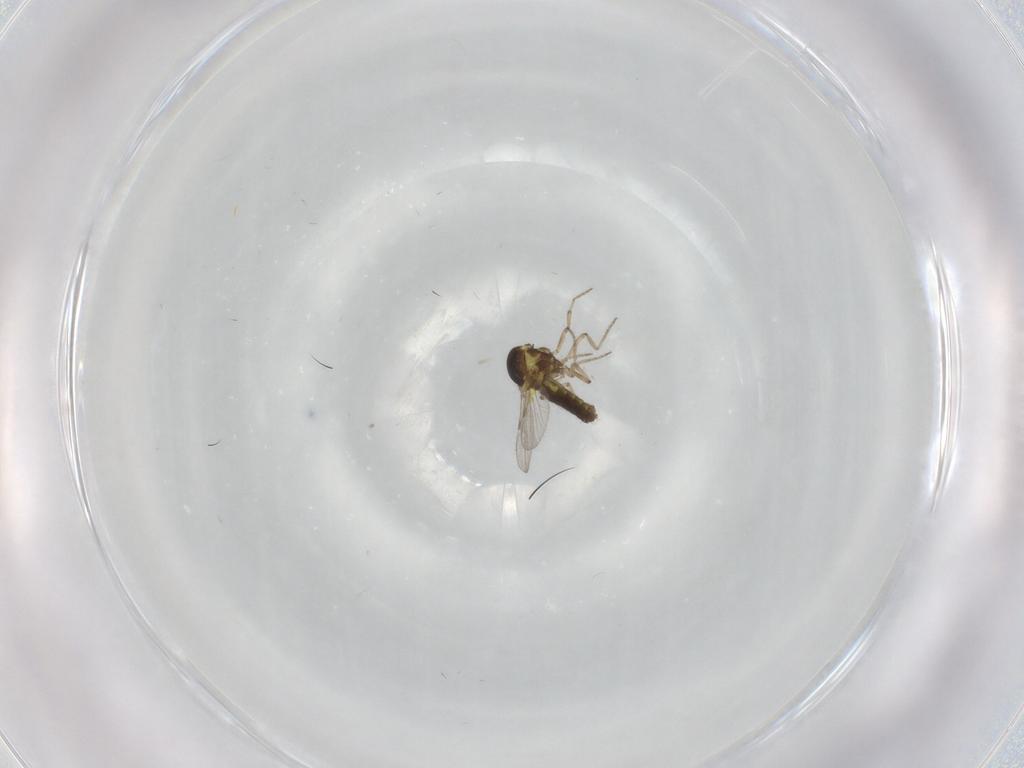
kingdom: Animalia
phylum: Arthropoda
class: Insecta
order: Diptera
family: Ceratopogonidae
